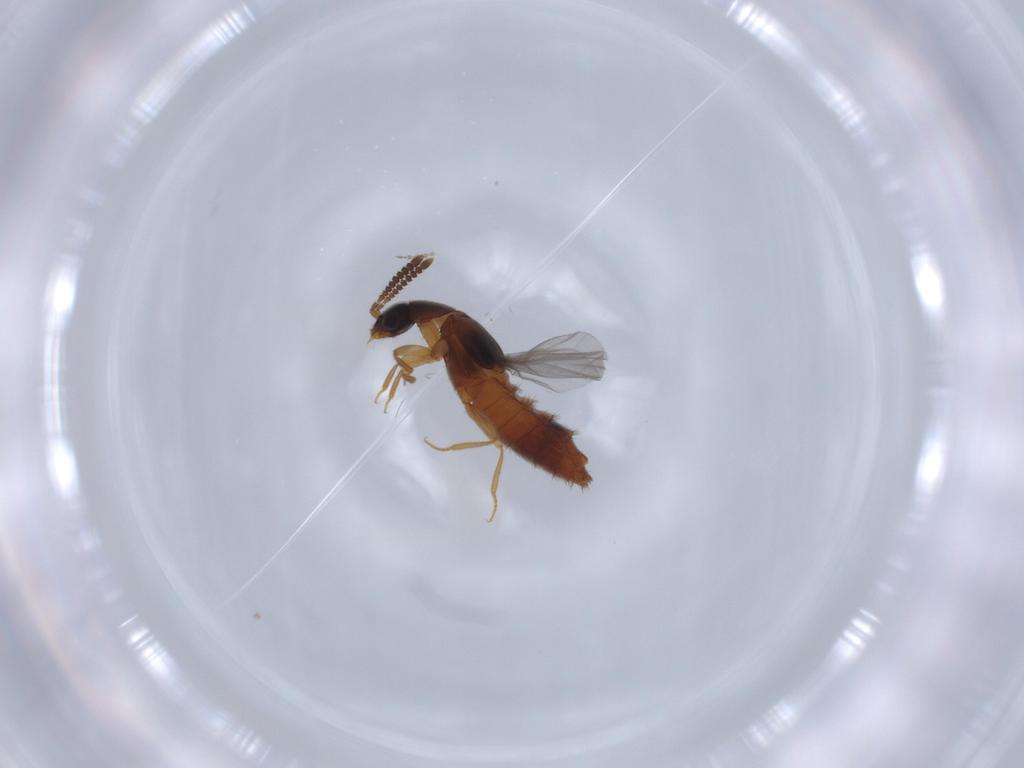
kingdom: Animalia
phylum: Arthropoda
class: Insecta
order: Coleoptera
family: Staphylinidae
